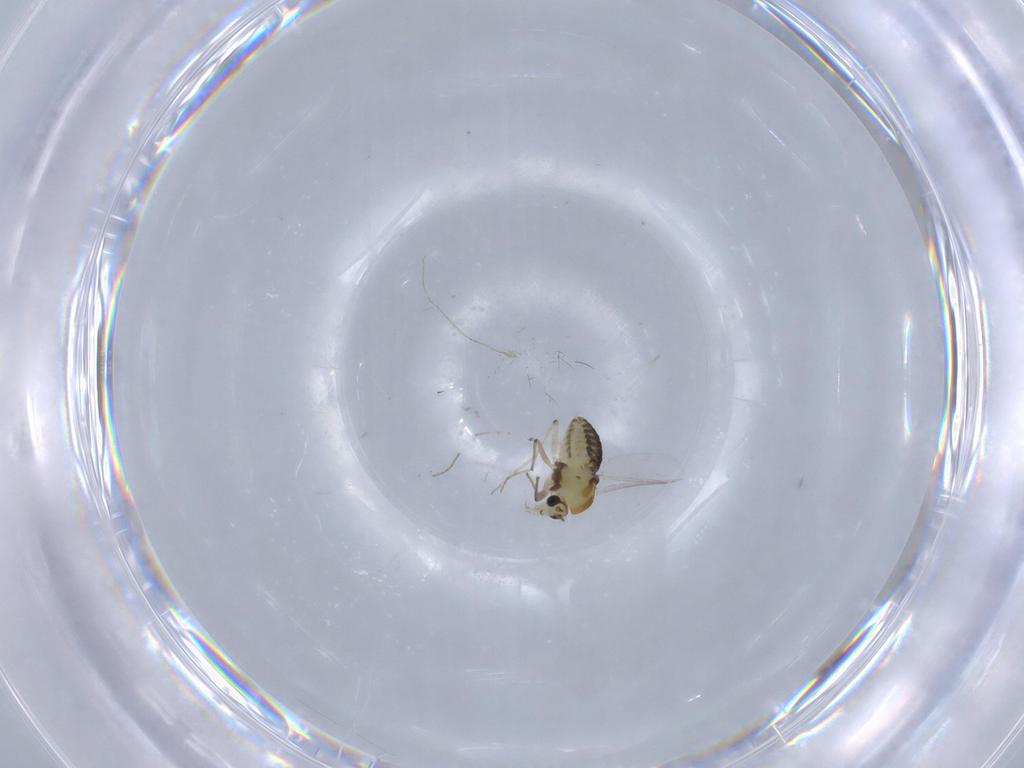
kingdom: Animalia
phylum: Arthropoda
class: Insecta
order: Diptera
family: Chironomidae
